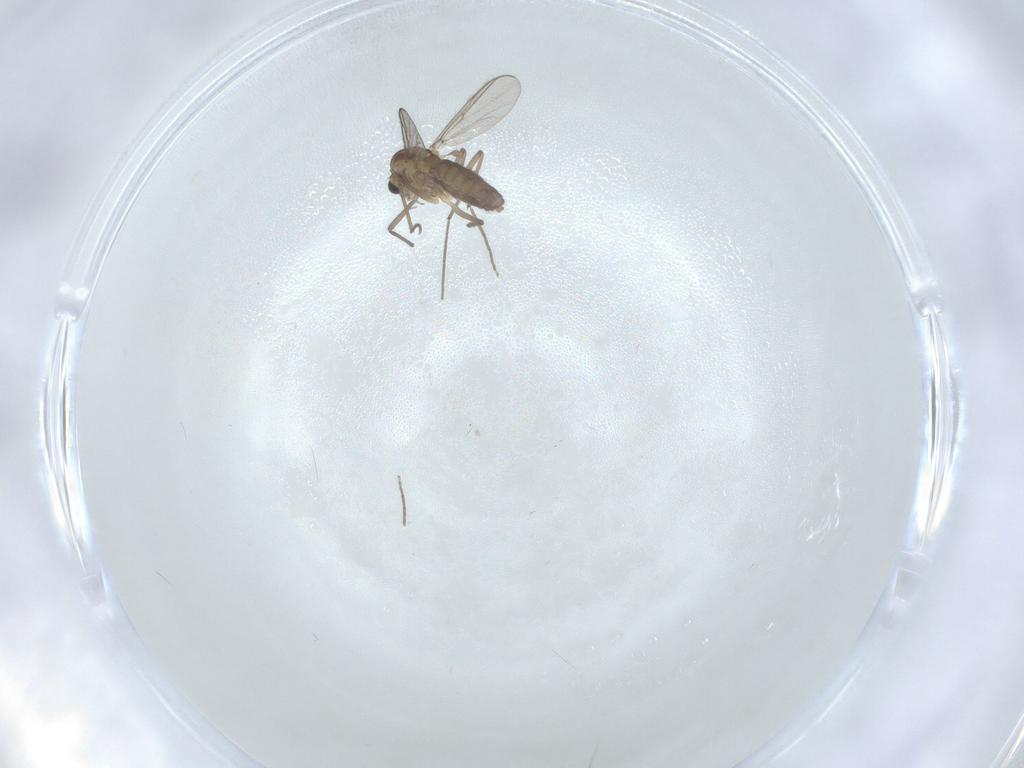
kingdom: Animalia
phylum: Arthropoda
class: Insecta
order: Diptera
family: Chironomidae
